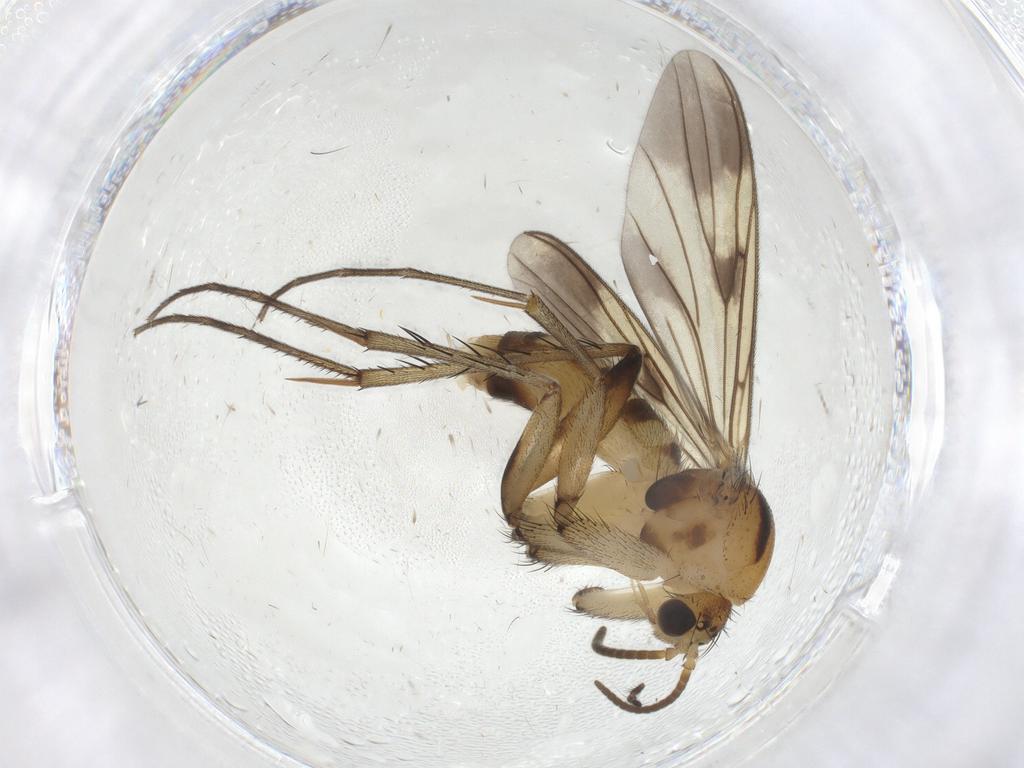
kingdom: Animalia
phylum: Arthropoda
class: Insecta
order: Diptera
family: Mycetophilidae
